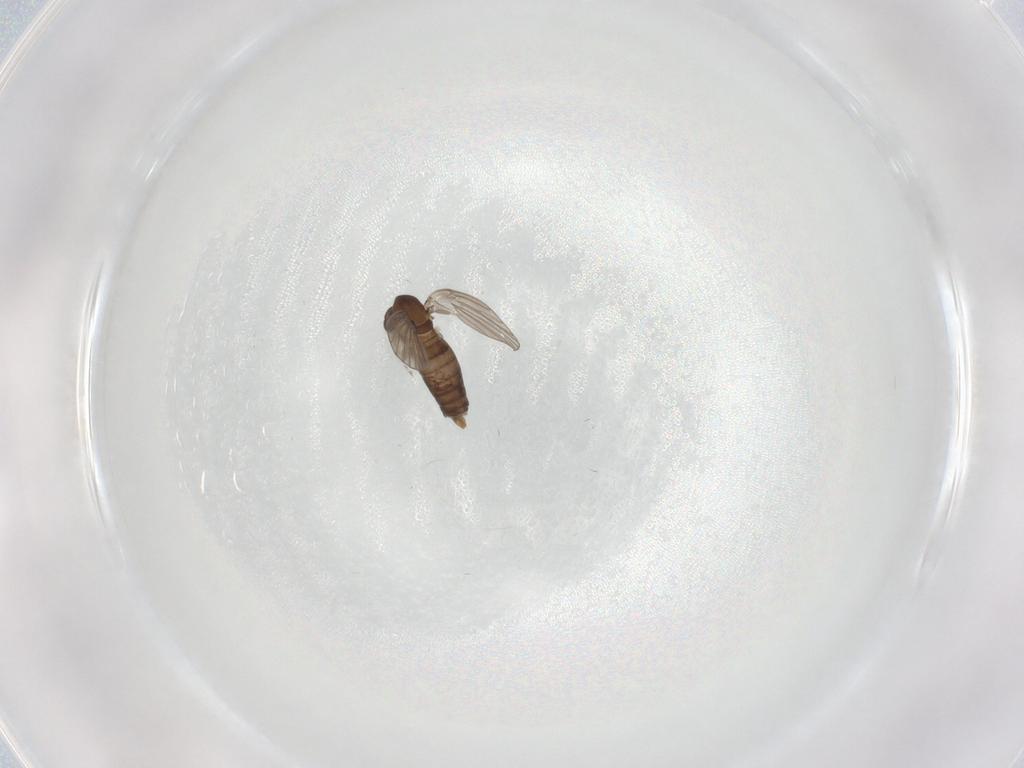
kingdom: Animalia
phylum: Arthropoda
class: Insecta
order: Diptera
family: Psychodidae
